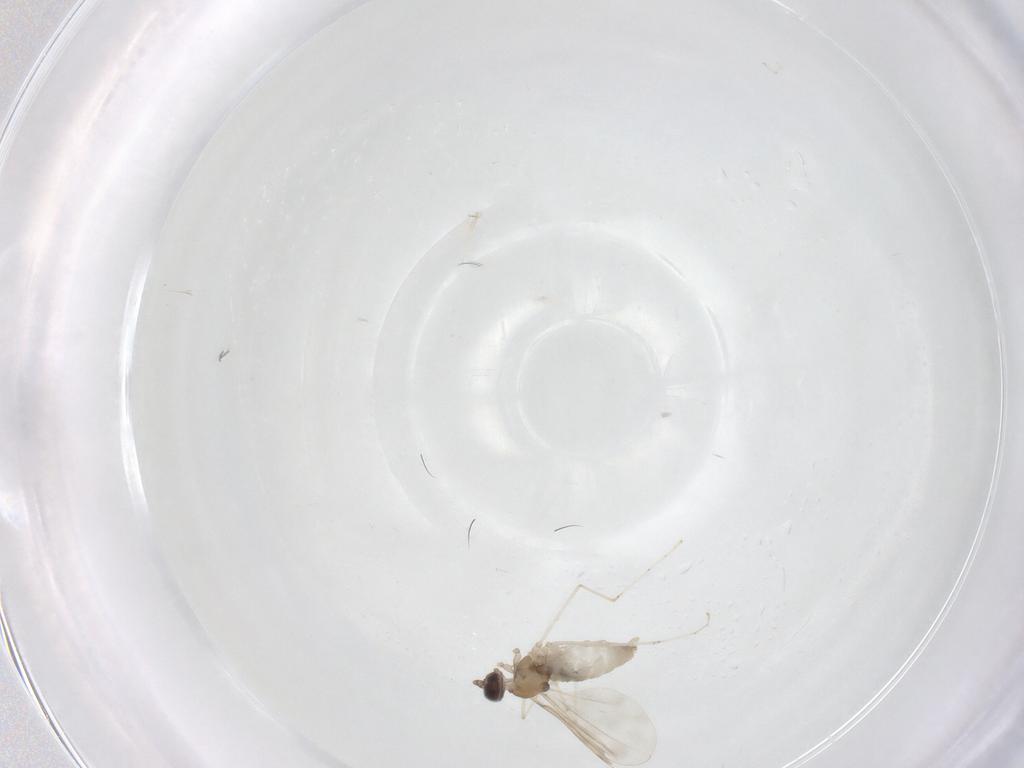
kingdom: Animalia
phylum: Arthropoda
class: Insecta
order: Diptera
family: Cecidomyiidae
